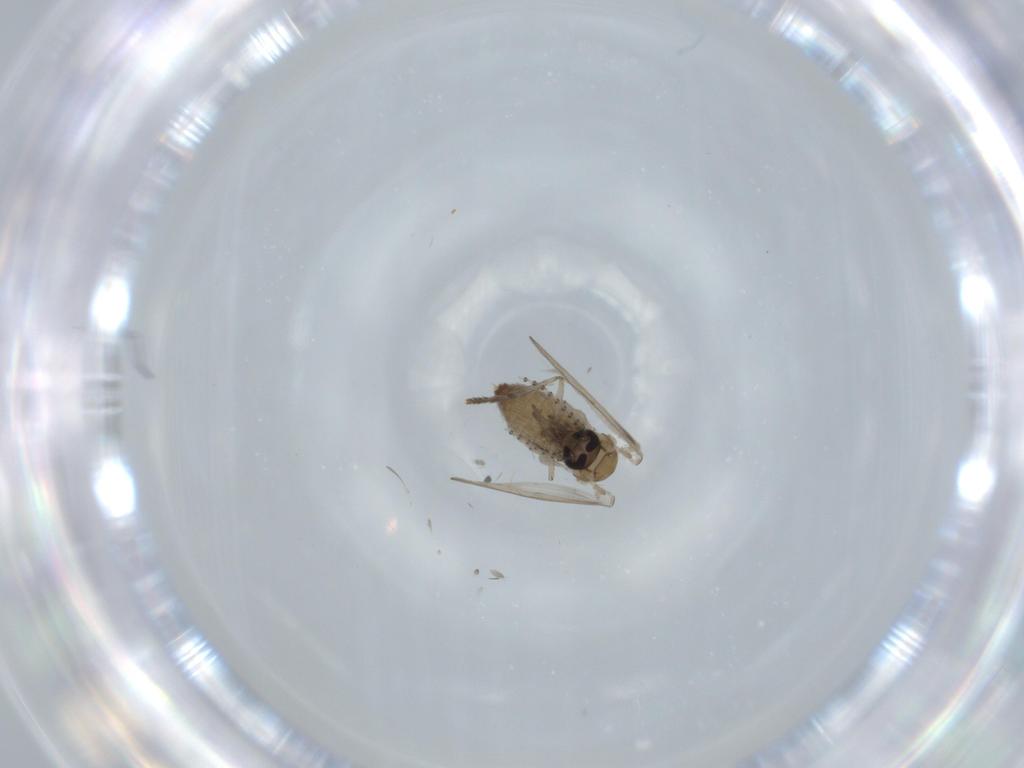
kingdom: Animalia
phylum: Arthropoda
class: Insecta
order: Diptera
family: Psychodidae
